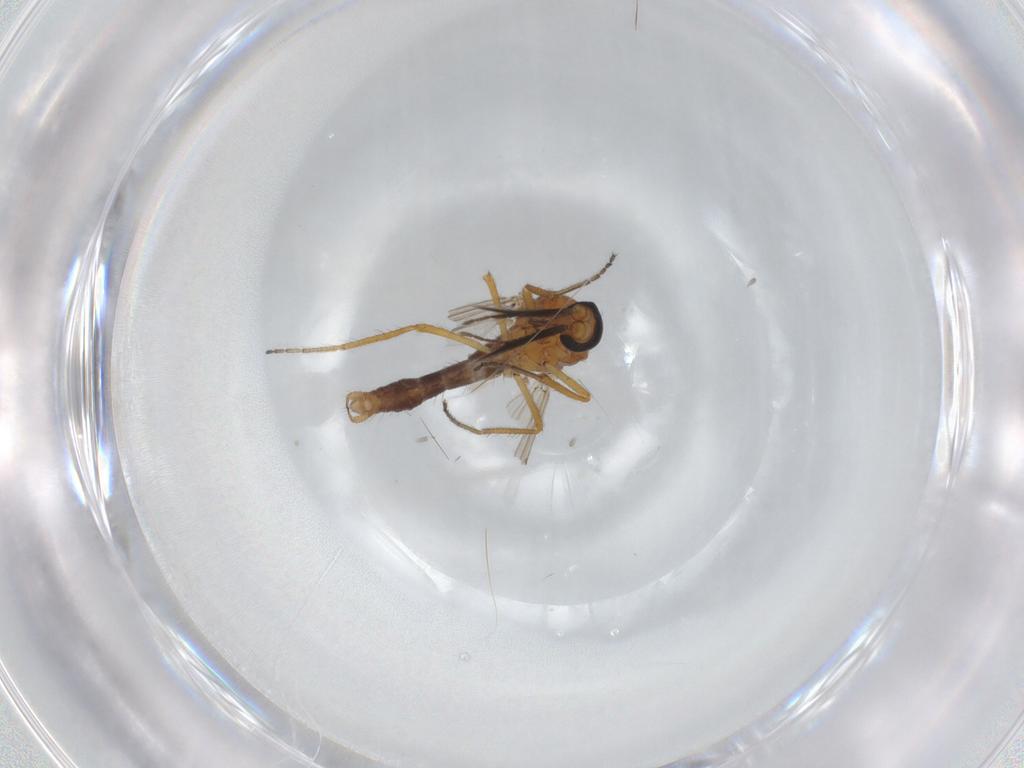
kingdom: Animalia
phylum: Arthropoda
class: Insecta
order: Diptera
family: Ceratopogonidae
